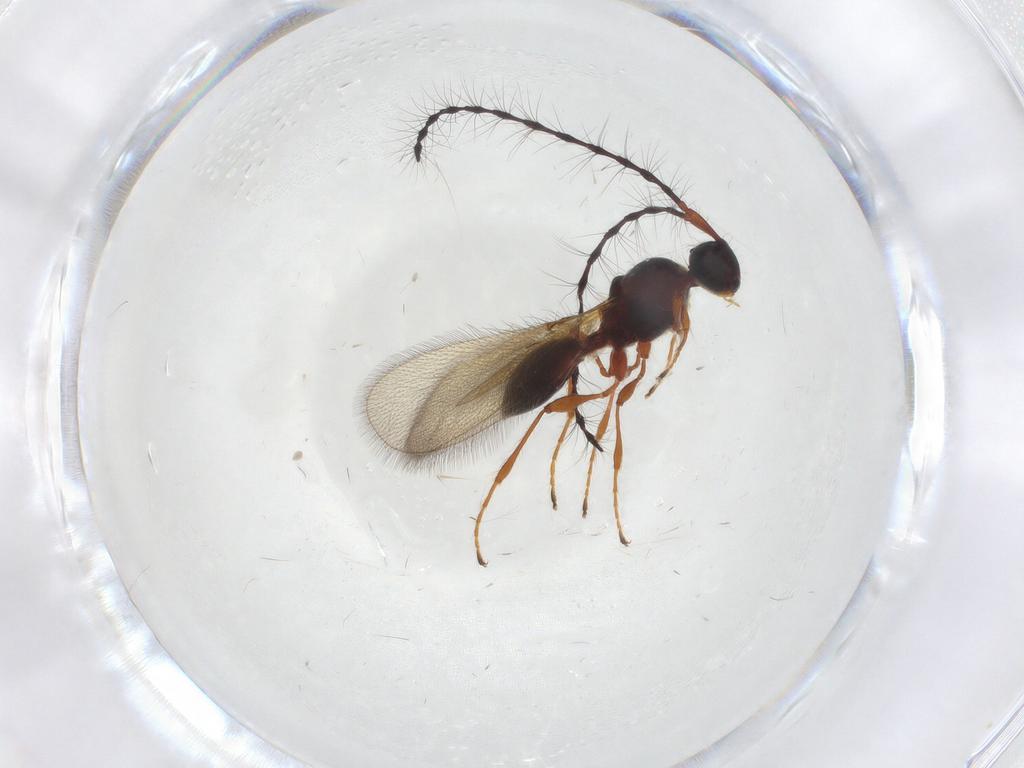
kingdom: Animalia
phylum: Arthropoda
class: Insecta
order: Hymenoptera
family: Diapriidae
